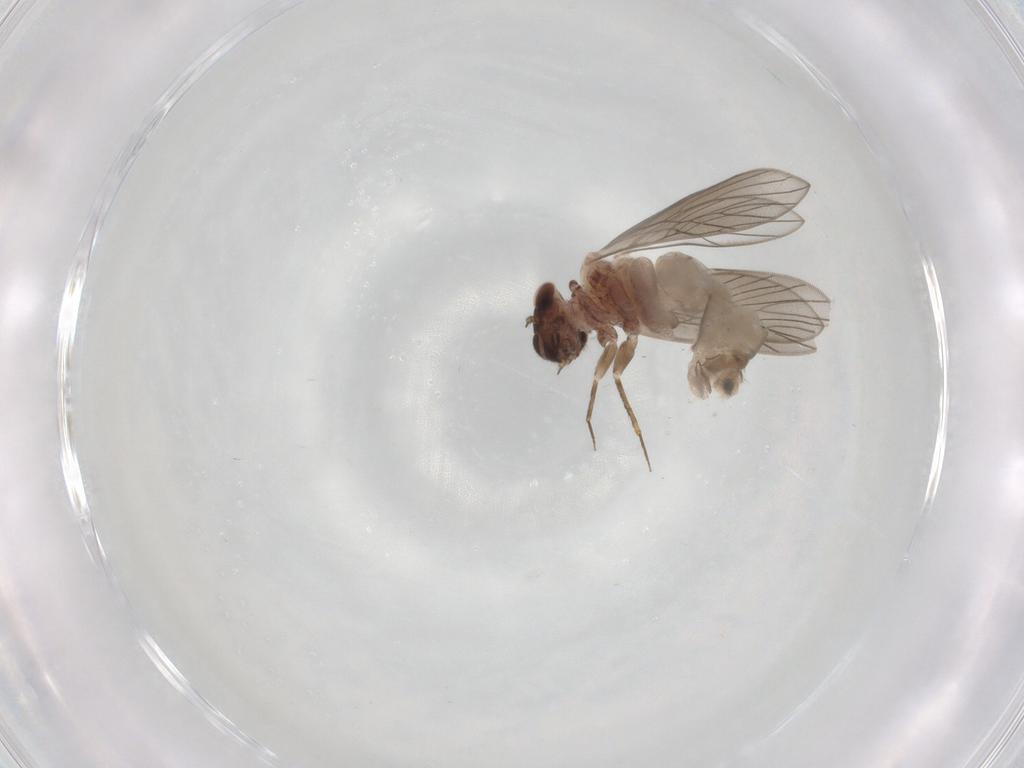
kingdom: Animalia
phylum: Arthropoda
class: Insecta
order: Psocodea
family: Lepidopsocidae
